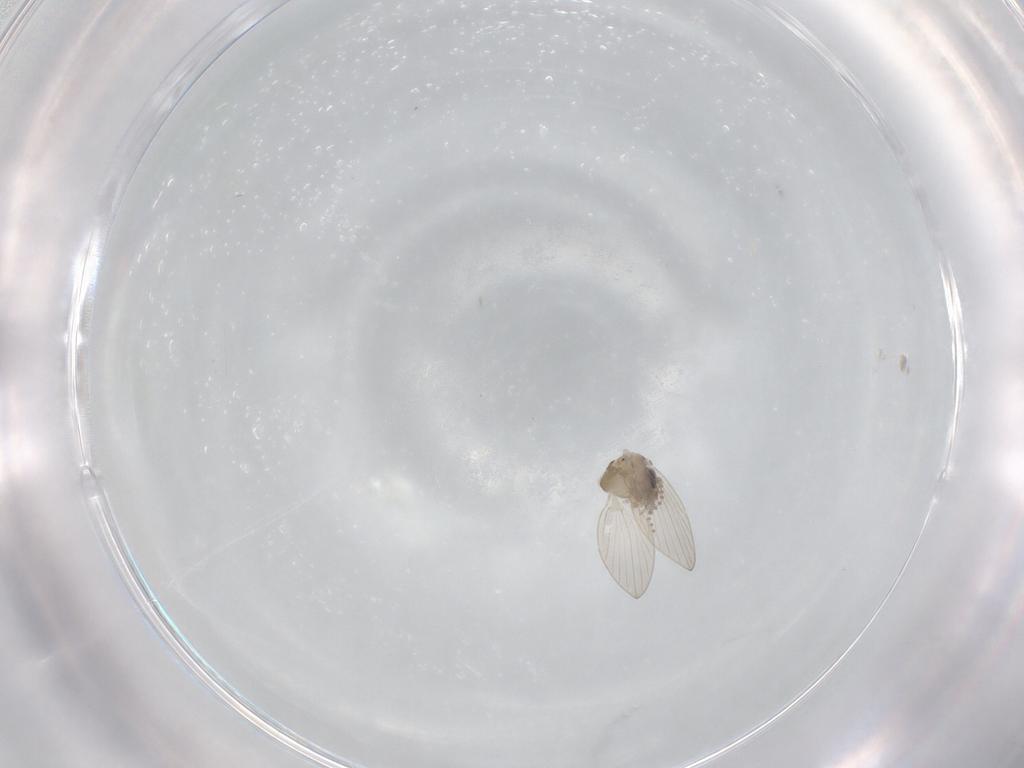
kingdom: Animalia
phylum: Arthropoda
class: Insecta
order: Diptera
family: Psychodidae
